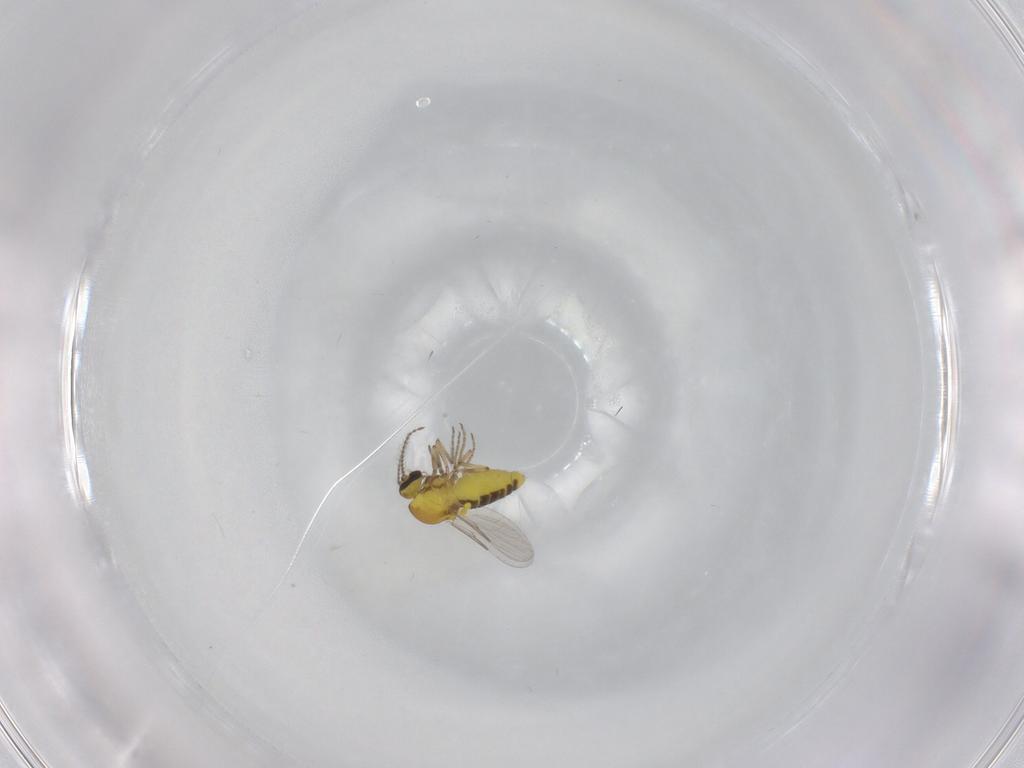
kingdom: Animalia
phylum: Arthropoda
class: Insecta
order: Diptera
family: Ceratopogonidae
